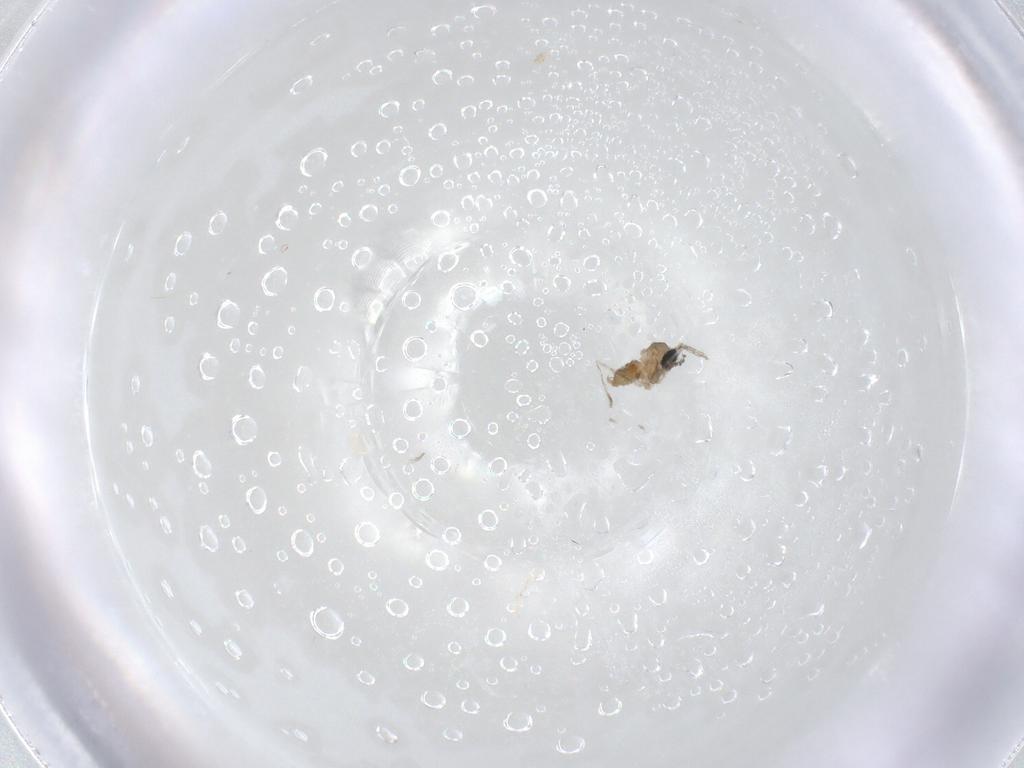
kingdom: Animalia
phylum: Arthropoda
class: Insecta
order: Diptera
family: Cecidomyiidae
